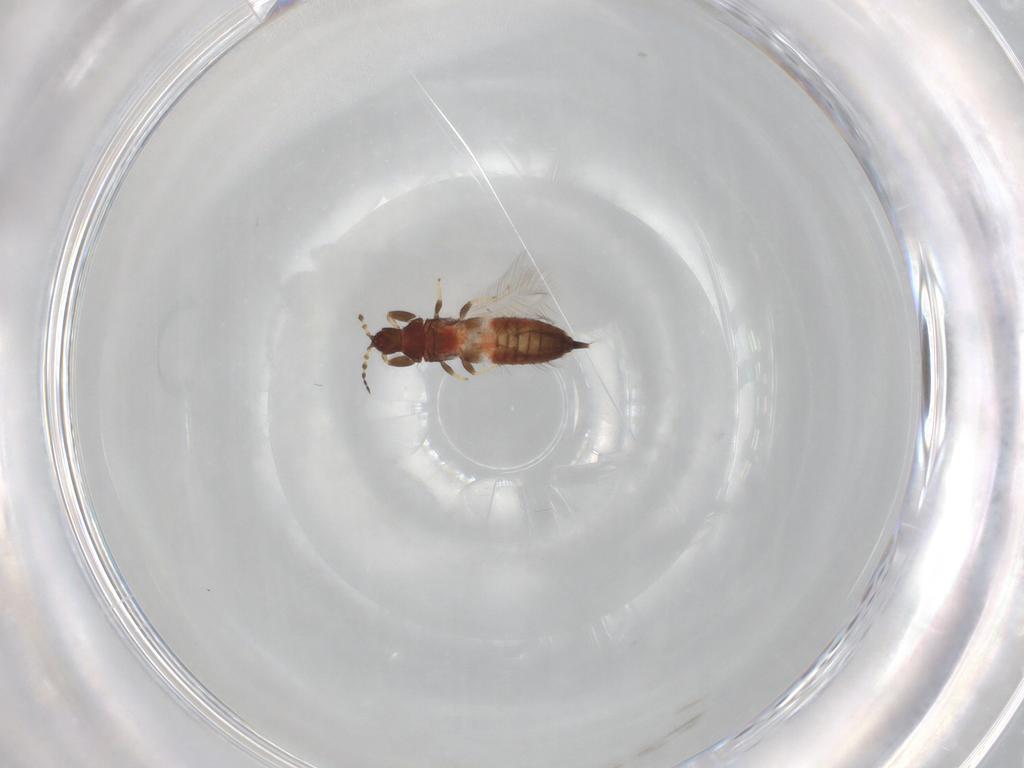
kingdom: Animalia
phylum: Arthropoda
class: Insecta
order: Thysanoptera
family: Phlaeothripidae
